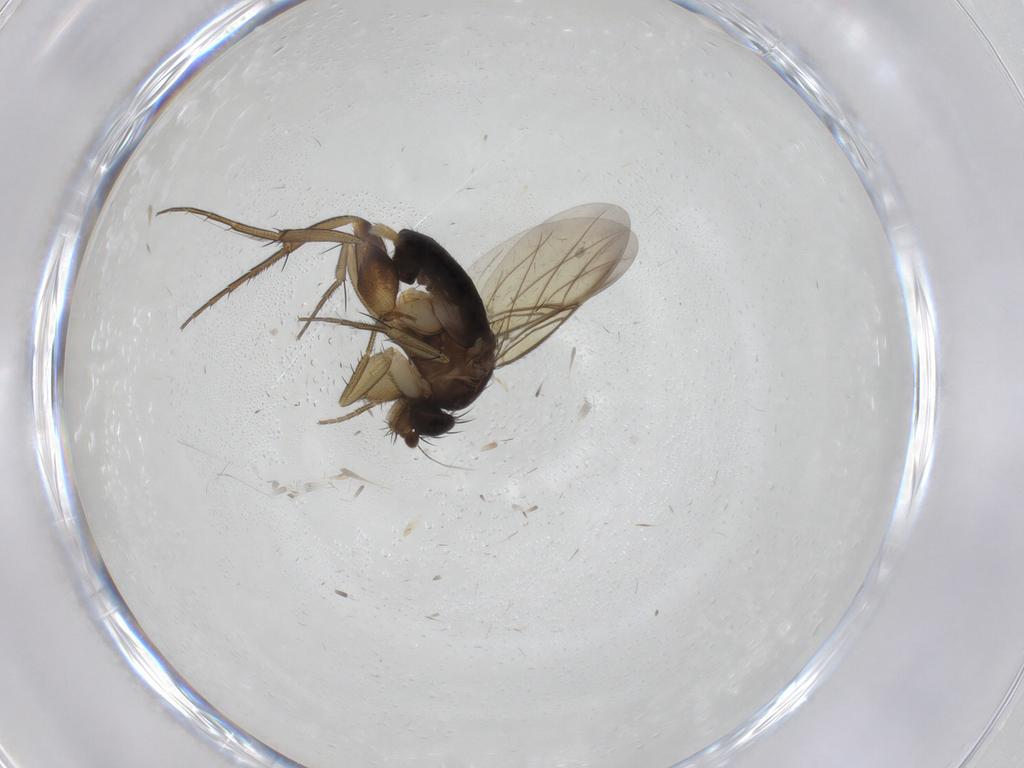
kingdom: Animalia
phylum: Arthropoda
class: Insecta
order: Diptera
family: Phoridae
